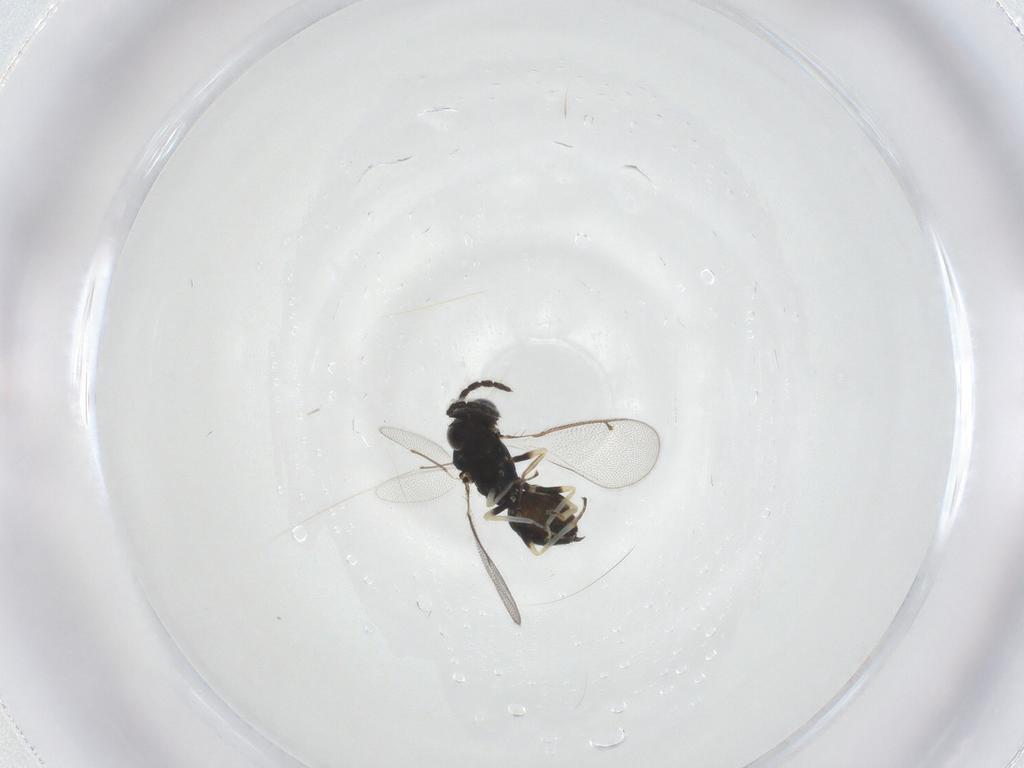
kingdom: Animalia
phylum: Arthropoda
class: Insecta
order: Hymenoptera
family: Eulophidae
